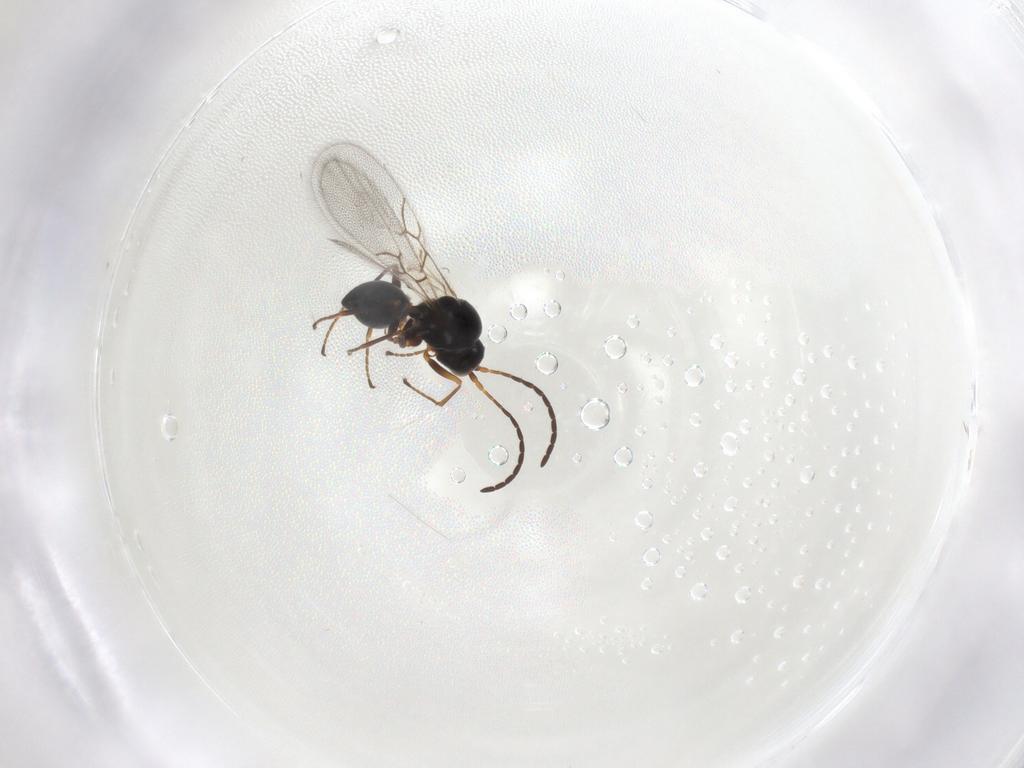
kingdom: Animalia
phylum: Arthropoda
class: Insecta
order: Hymenoptera
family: Figitidae
